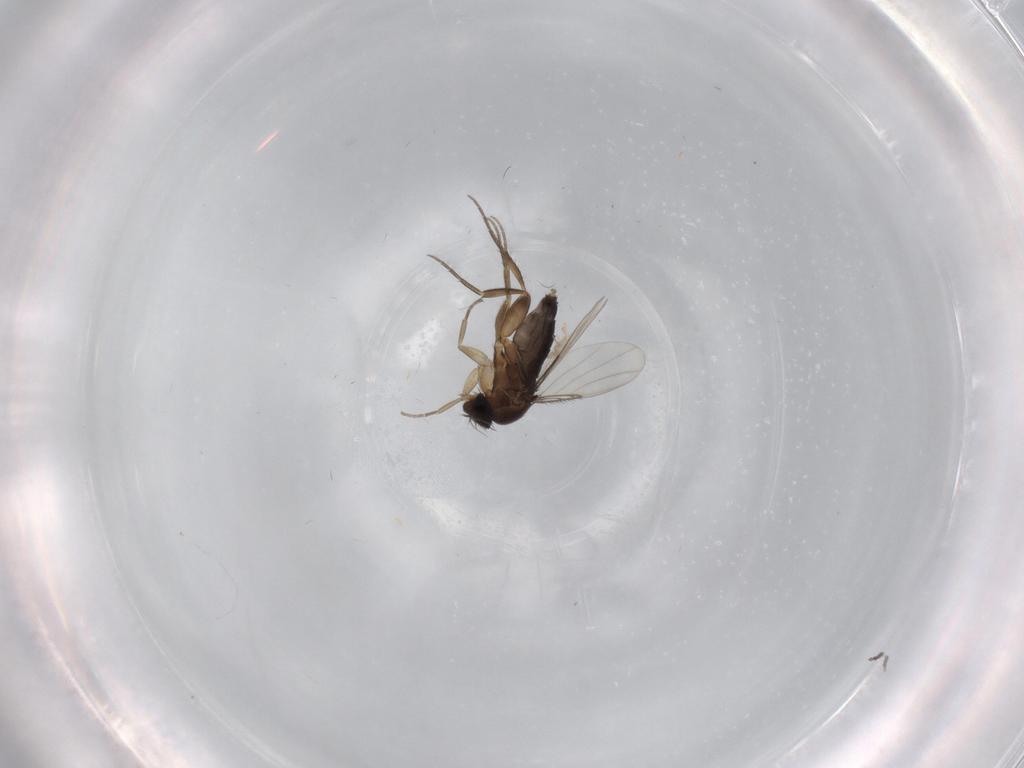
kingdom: Animalia
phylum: Arthropoda
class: Insecta
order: Diptera
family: Phoridae
